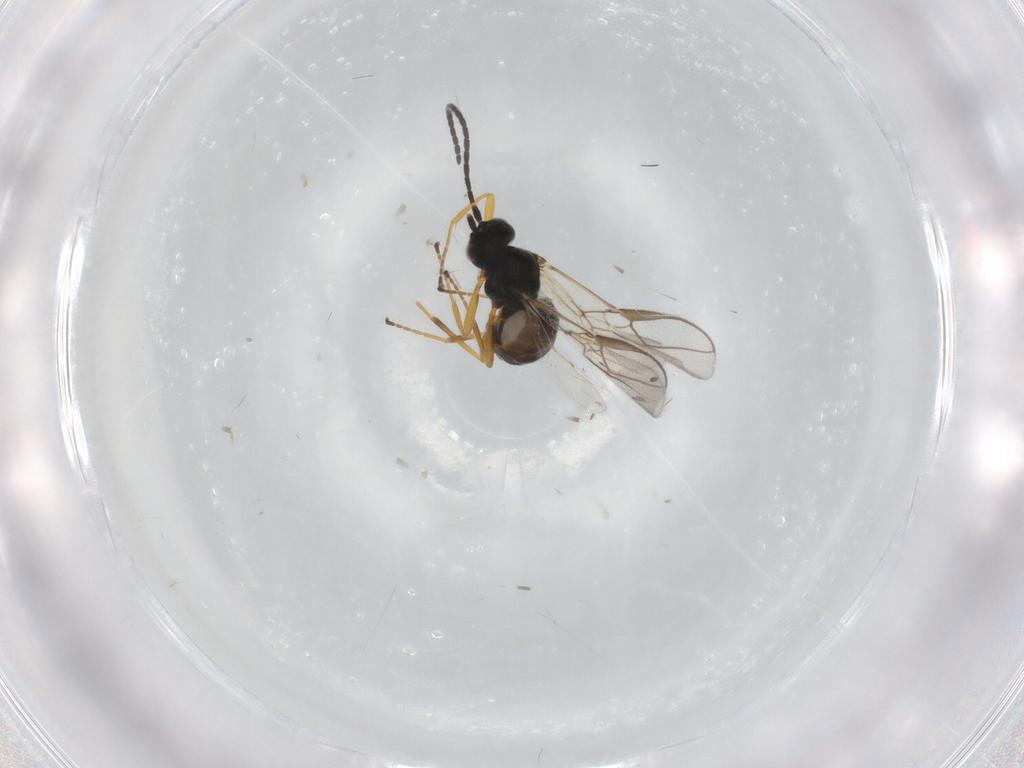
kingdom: Animalia
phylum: Arthropoda
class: Insecta
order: Hymenoptera
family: Braconidae
